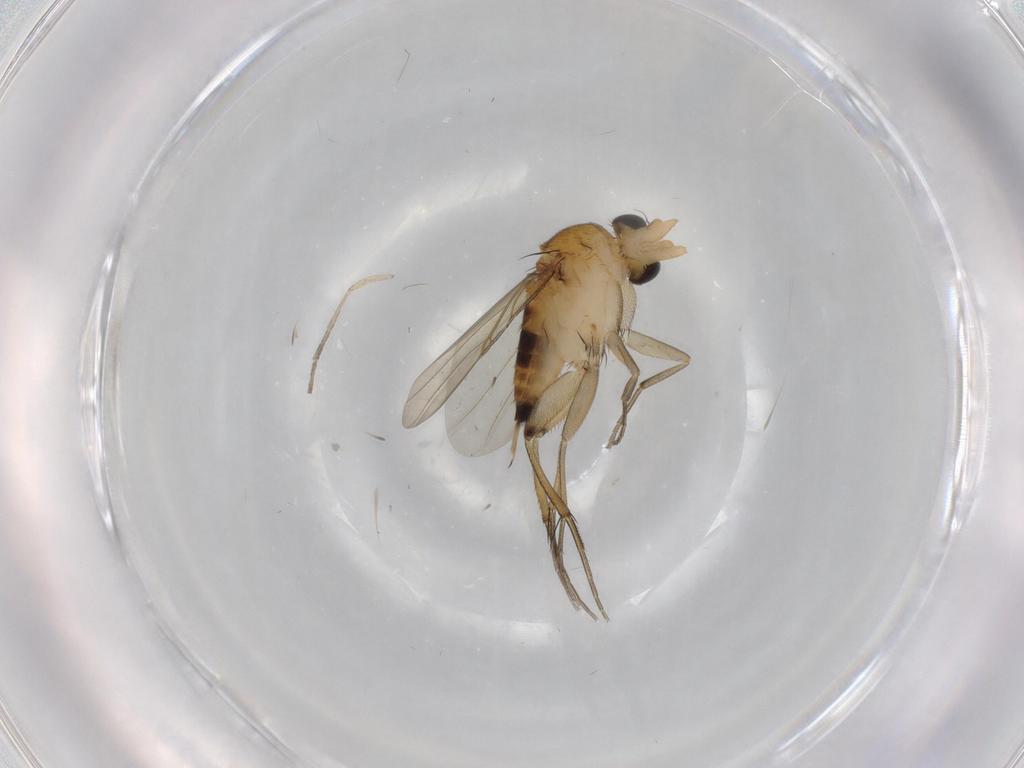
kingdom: Animalia
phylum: Arthropoda
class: Insecta
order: Diptera
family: Phoridae
